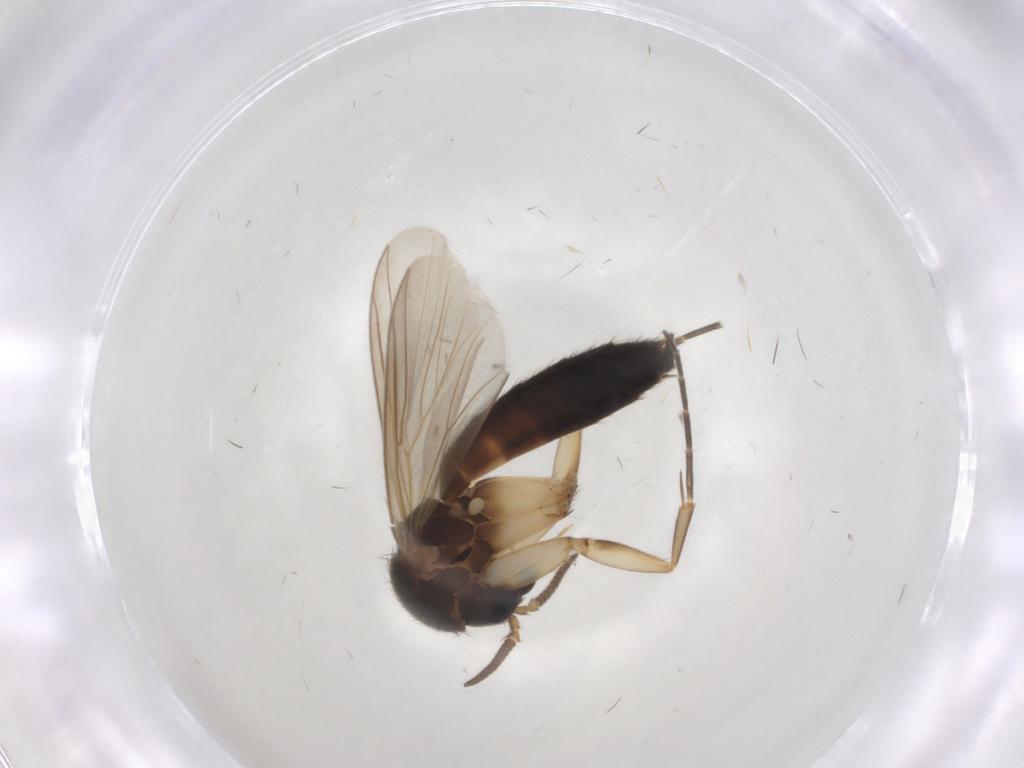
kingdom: Animalia
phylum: Arthropoda
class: Insecta
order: Diptera
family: Mycetophilidae
